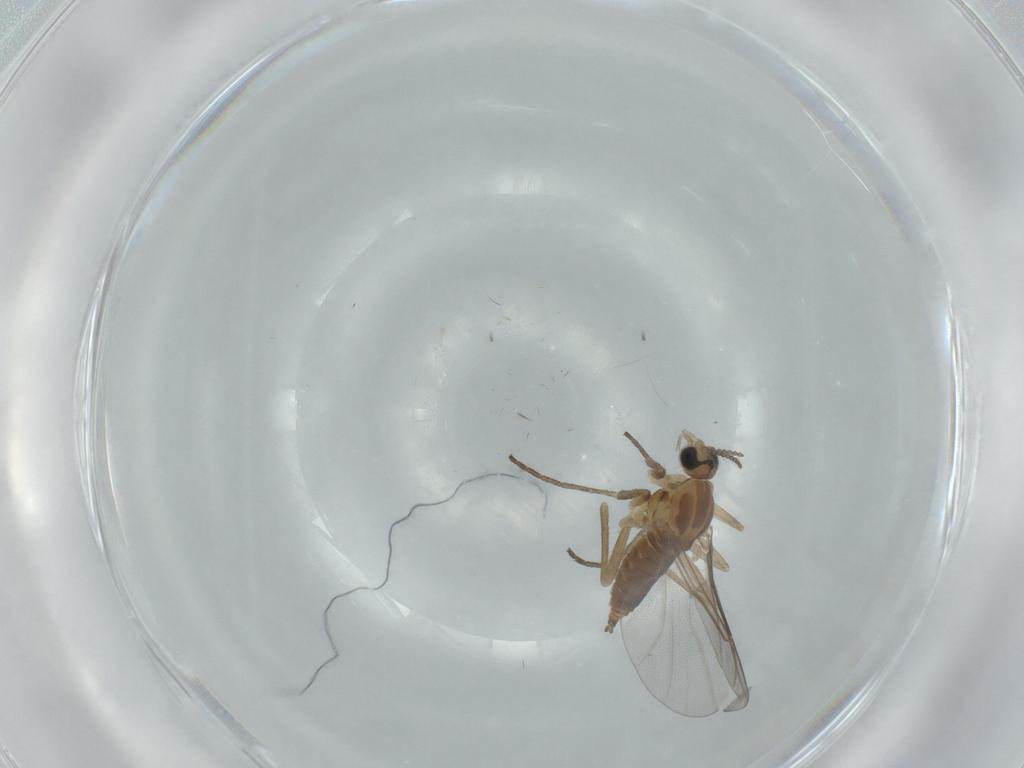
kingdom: Animalia
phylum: Arthropoda
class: Insecta
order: Diptera
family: Cecidomyiidae
